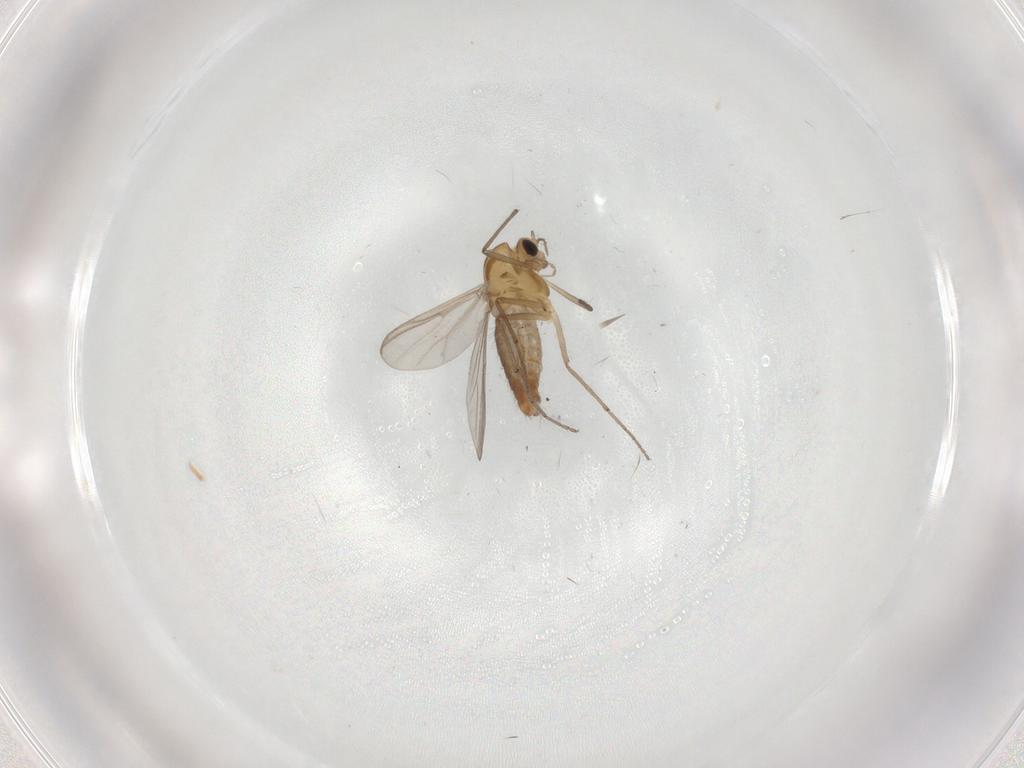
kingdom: Animalia
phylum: Arthropoda
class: Insecta
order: Diptera
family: Chironomidae
